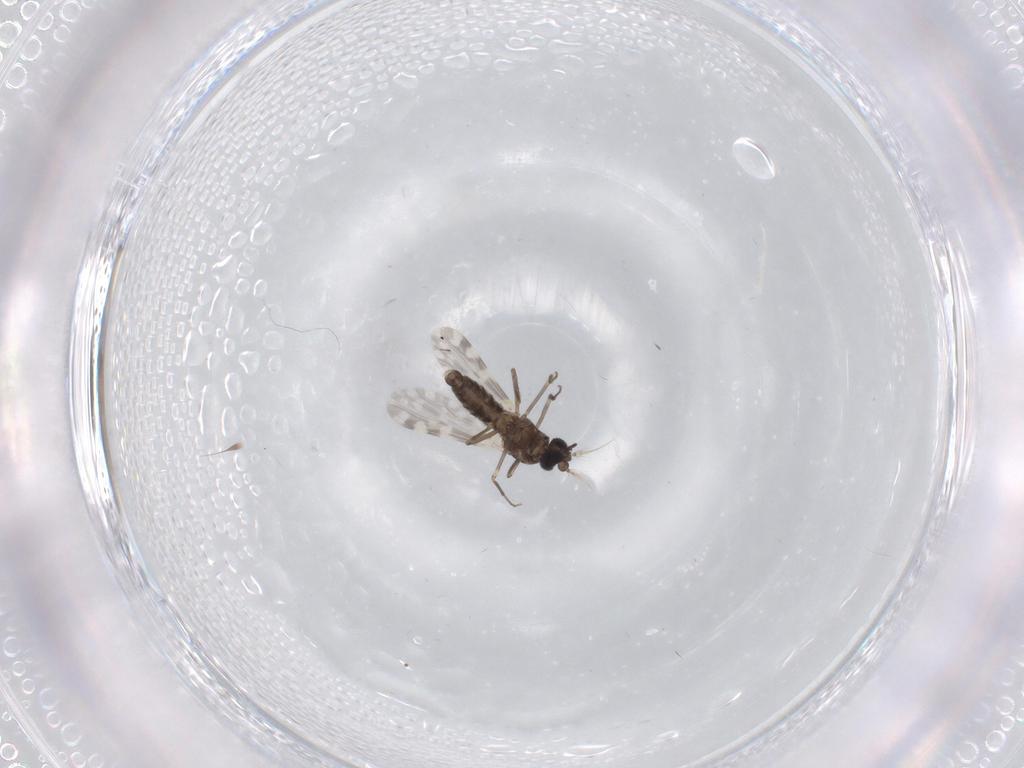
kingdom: Animalia
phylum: Arthropoda
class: Insecta
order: Diptera
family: Ceratopogonidae
